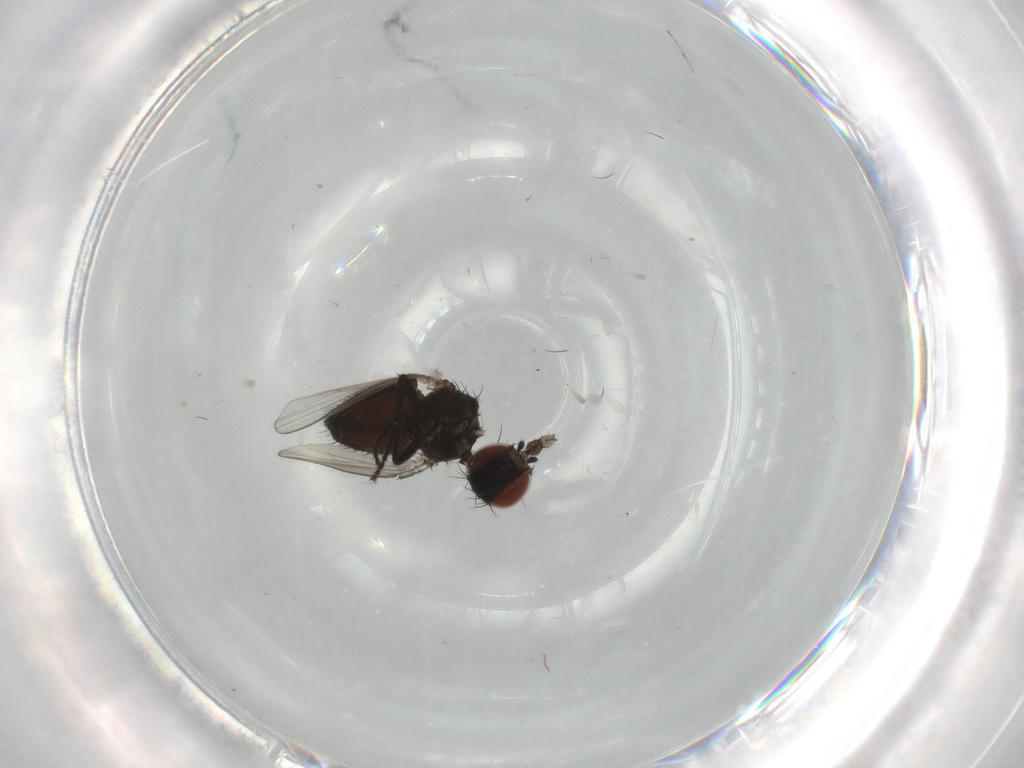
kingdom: Animalia
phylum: Arthropoda
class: Insecta
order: Diptera
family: Milichiidae
